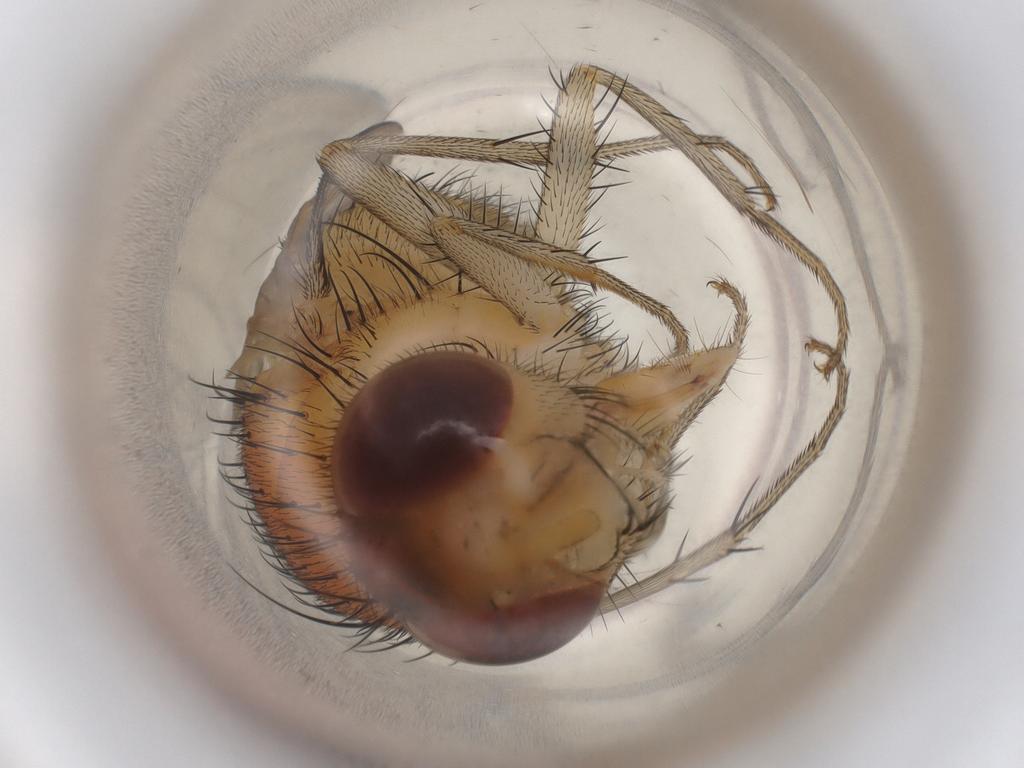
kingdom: Animalia
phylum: Arthropoda
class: Insecta
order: Diptera
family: Calliphoridae
